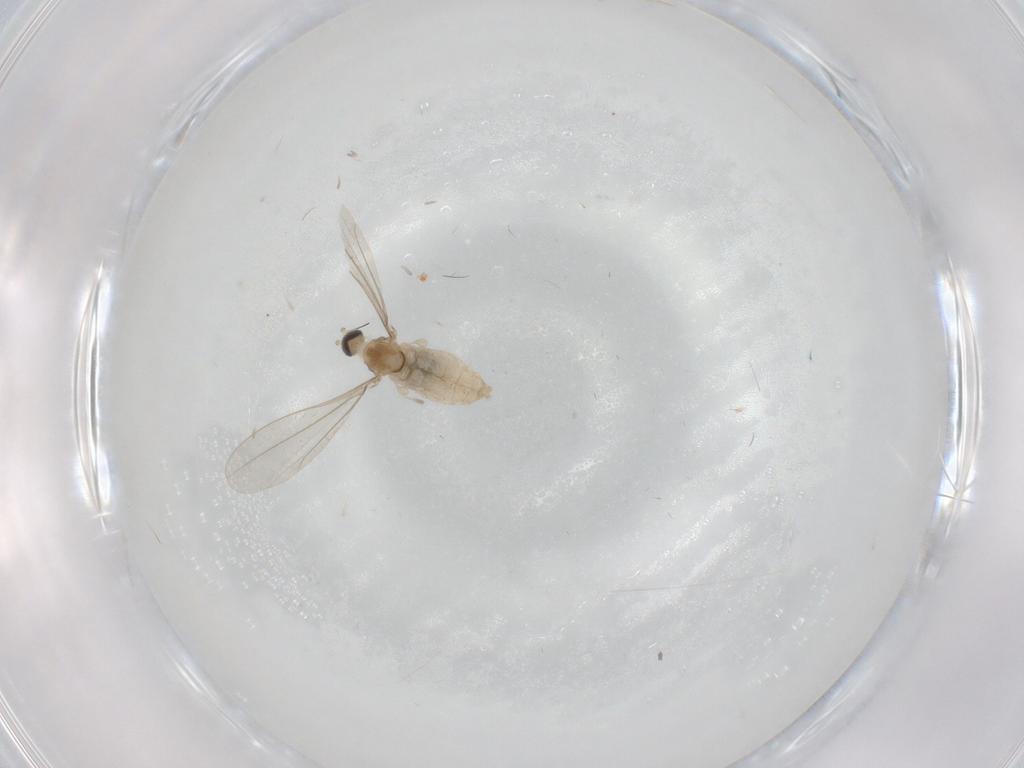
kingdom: Animalia
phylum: Arthropoda
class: Insecta
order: Diptera
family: Cecidomyiidae
